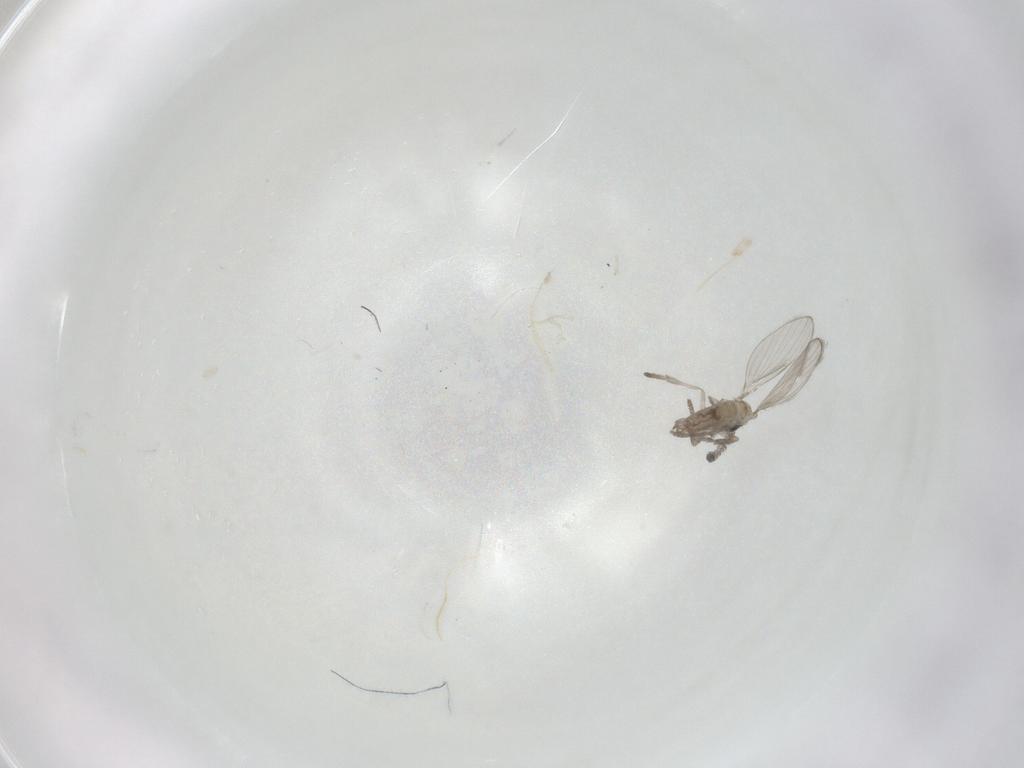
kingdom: Animalia
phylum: Arthropoda
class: Insecta
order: Diptera
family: Psychodidae
